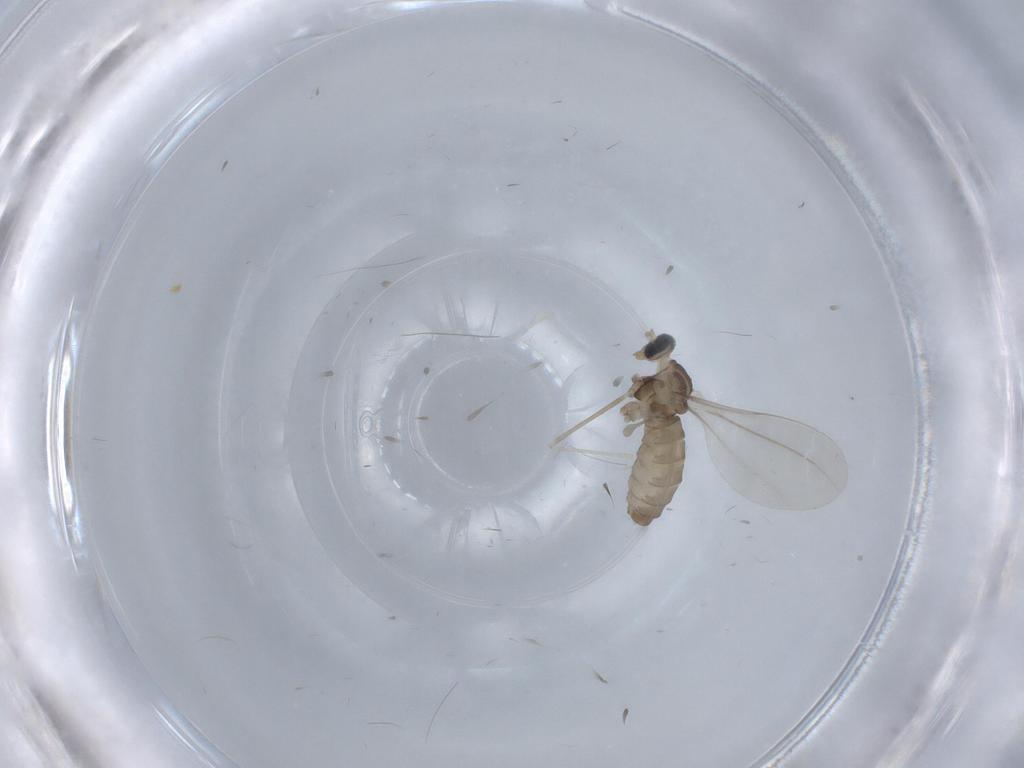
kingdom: Animalia
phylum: Arthropoda
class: Insecta
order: Diptera
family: Cecidomyiidae
